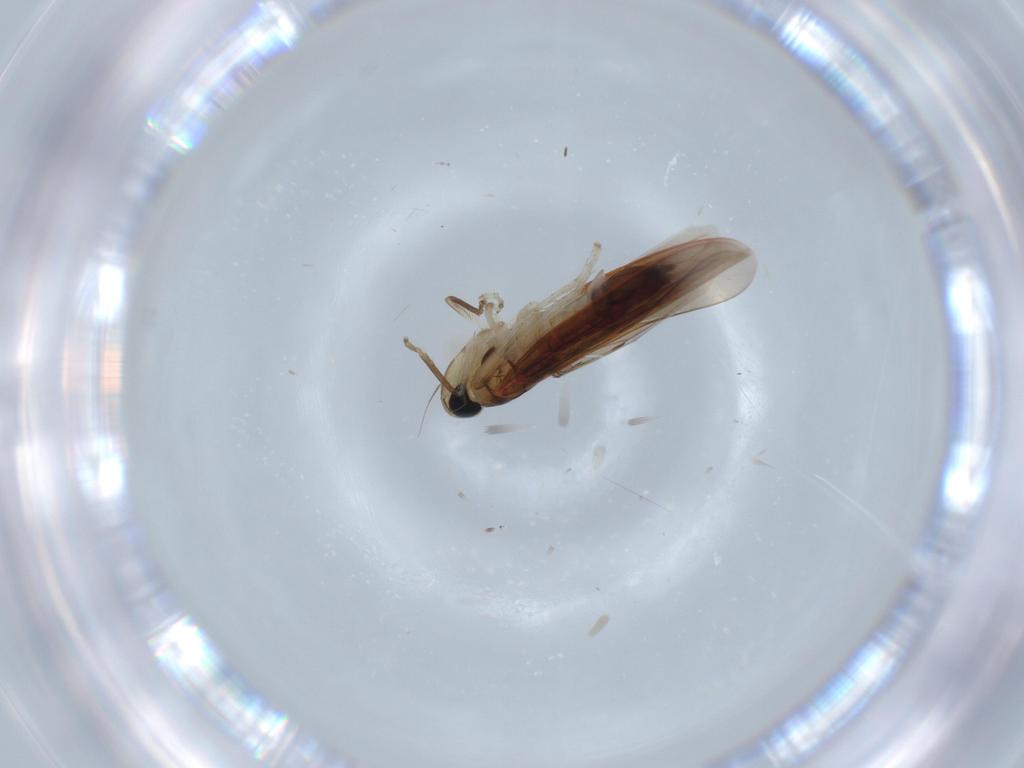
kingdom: Animalia
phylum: Arthropoda
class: Insecta
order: Hemiptera
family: Cicadellidae
